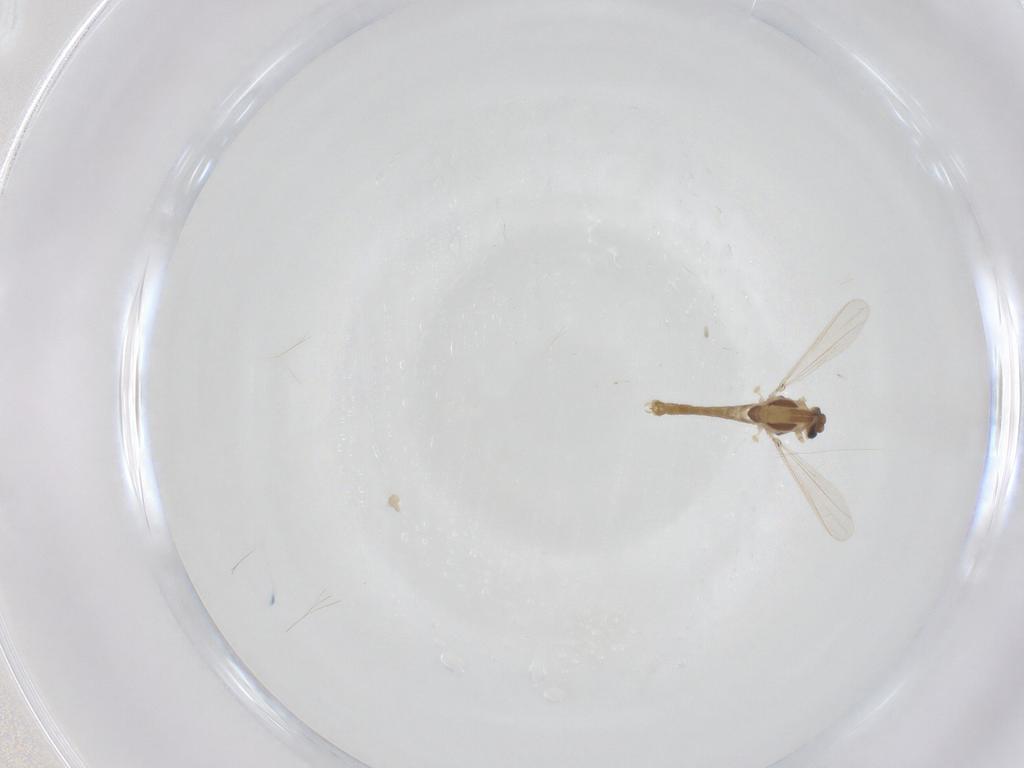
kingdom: Animalia
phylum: Arthropoda
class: Insecta
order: Diptera
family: Chironomidae
